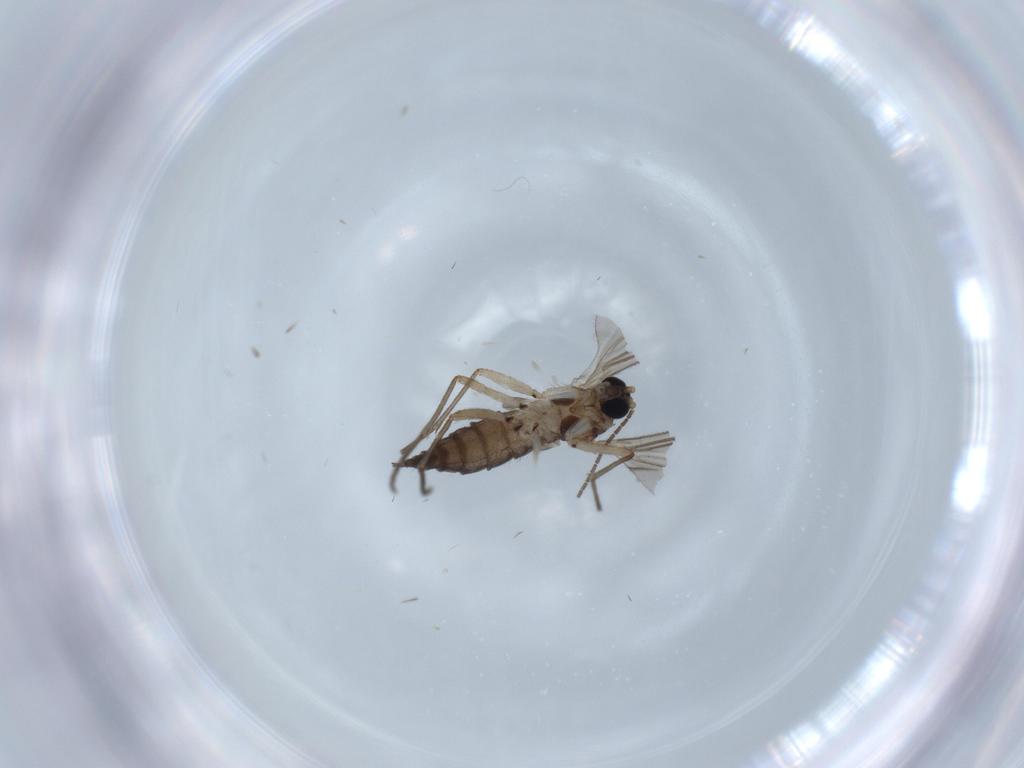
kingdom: Animalia
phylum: Arthropoda
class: Insecta
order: Diptera
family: Sciaridae
